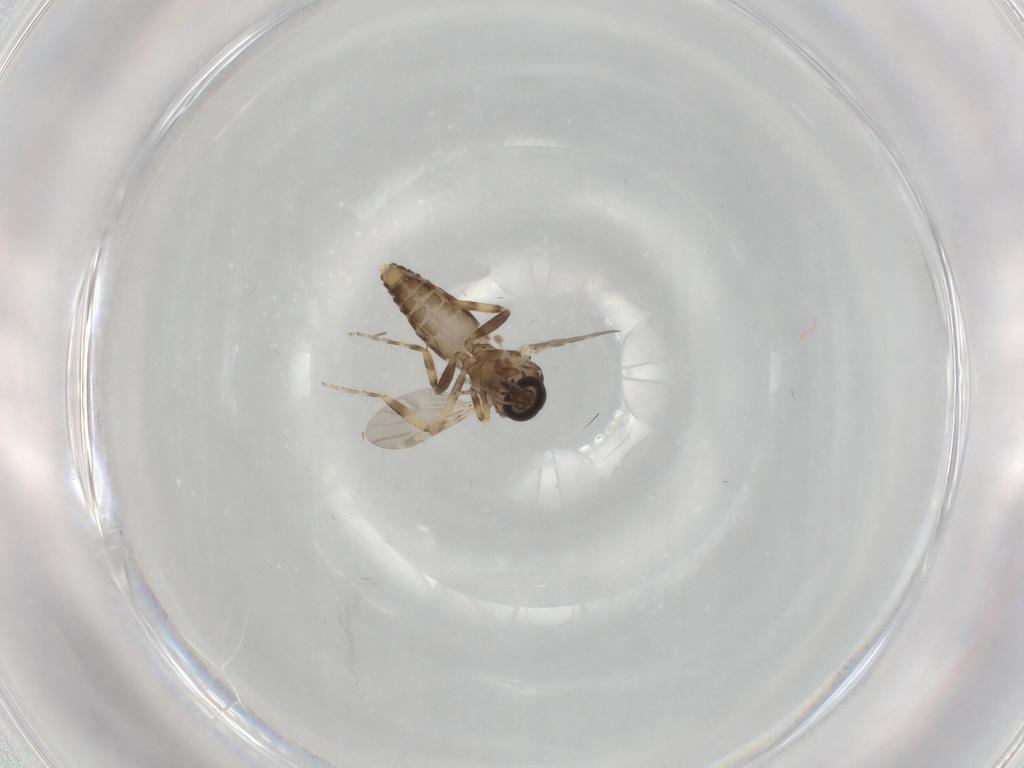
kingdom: Animalia
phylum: Arthropoda
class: Insecta
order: Diptera
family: Ceratopogonidae
